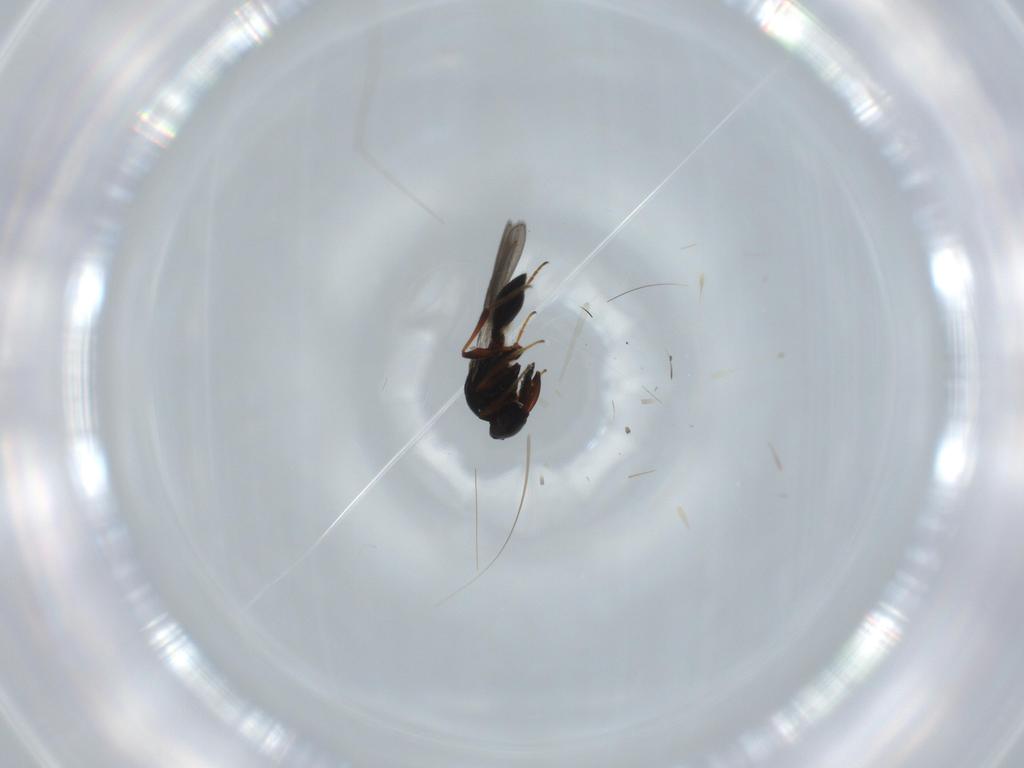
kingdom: Animalia
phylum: Arthropoda
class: Insecta
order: Hymenoptera
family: Platygastridae
